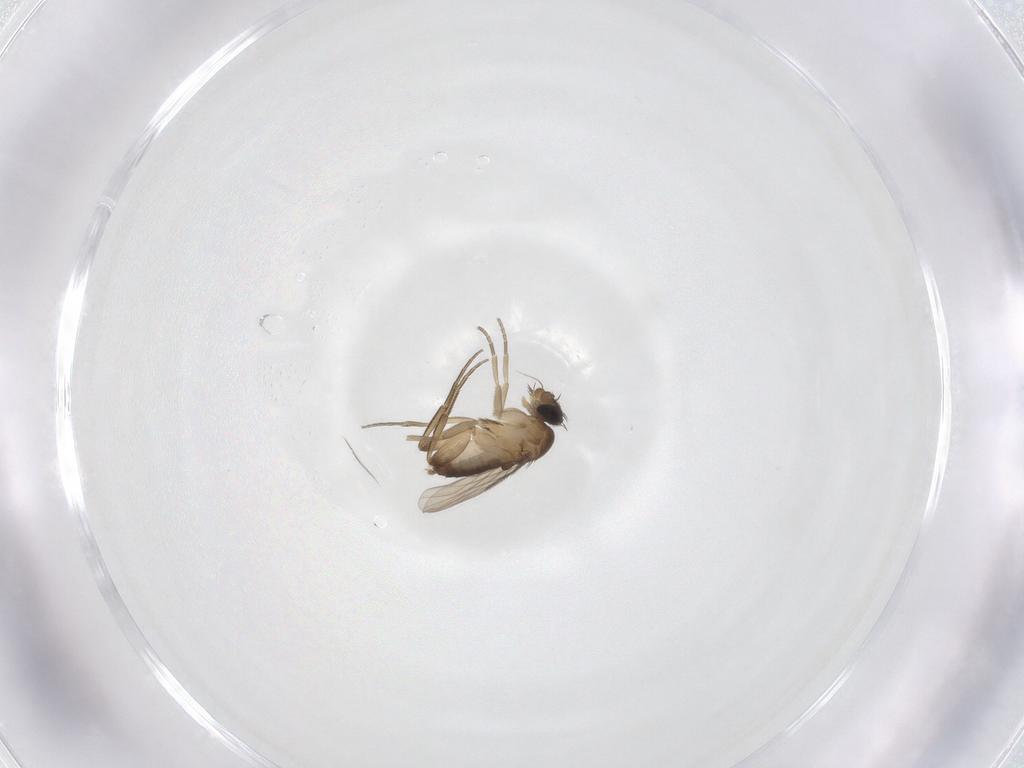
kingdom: Animalia
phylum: Arthropoda
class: Insecta
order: Diptera
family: Phoridae
